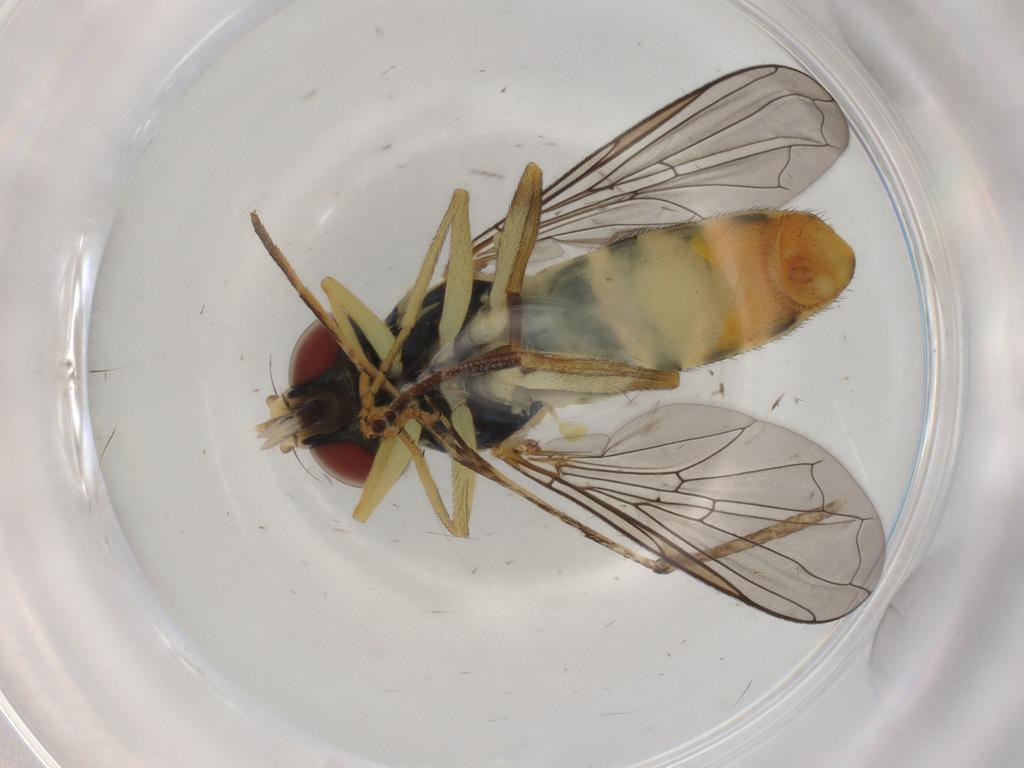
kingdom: Animalia
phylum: Arthropoda
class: Insecta
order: Diptera
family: Syrphidae
